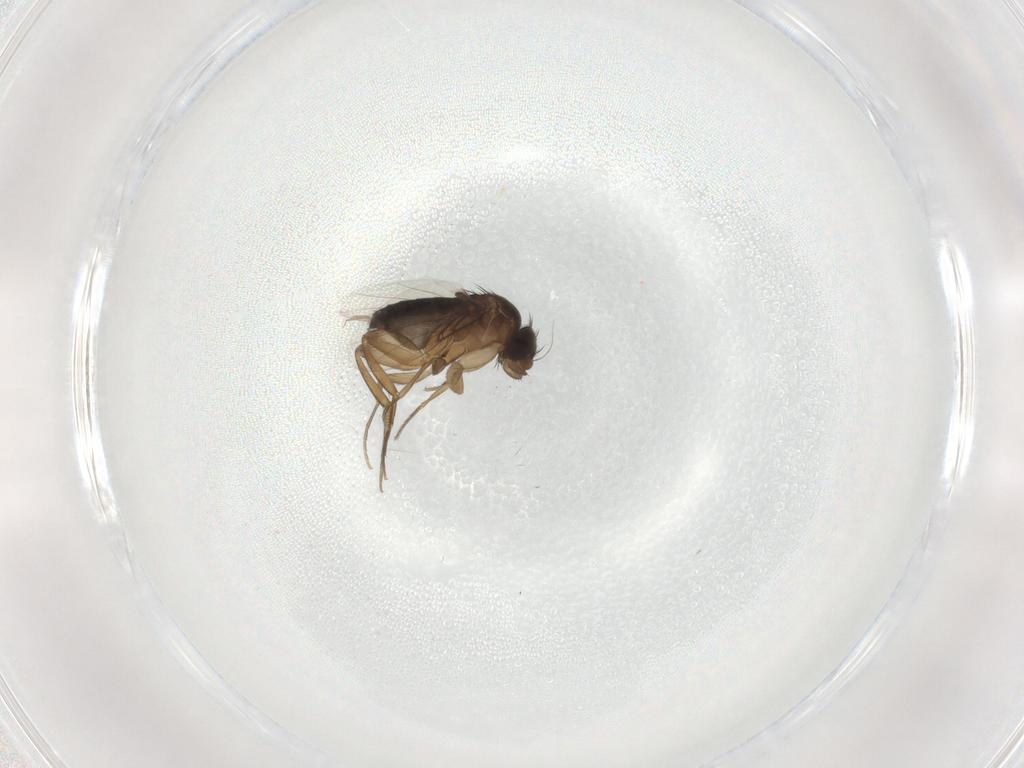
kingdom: Animalia
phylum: Arthropoda
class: Insecta
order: Diptera
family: Phoridae
